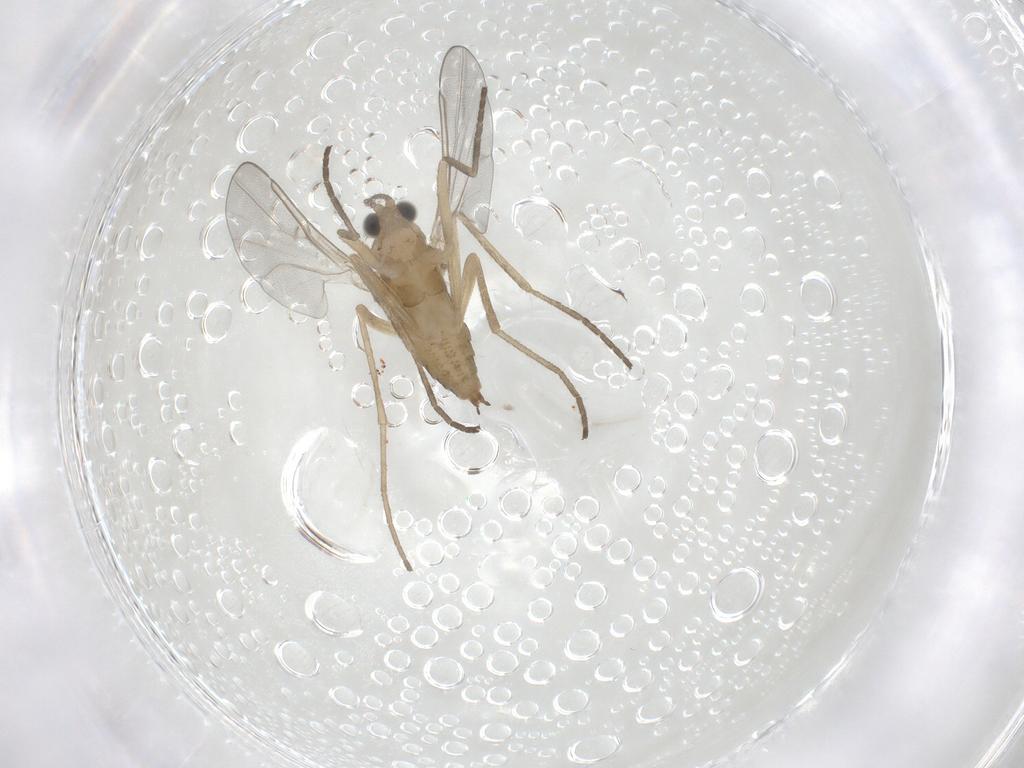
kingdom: Animalia
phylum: Arthropoda
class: Insecta
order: Diptera
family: Cecidomyiidae
